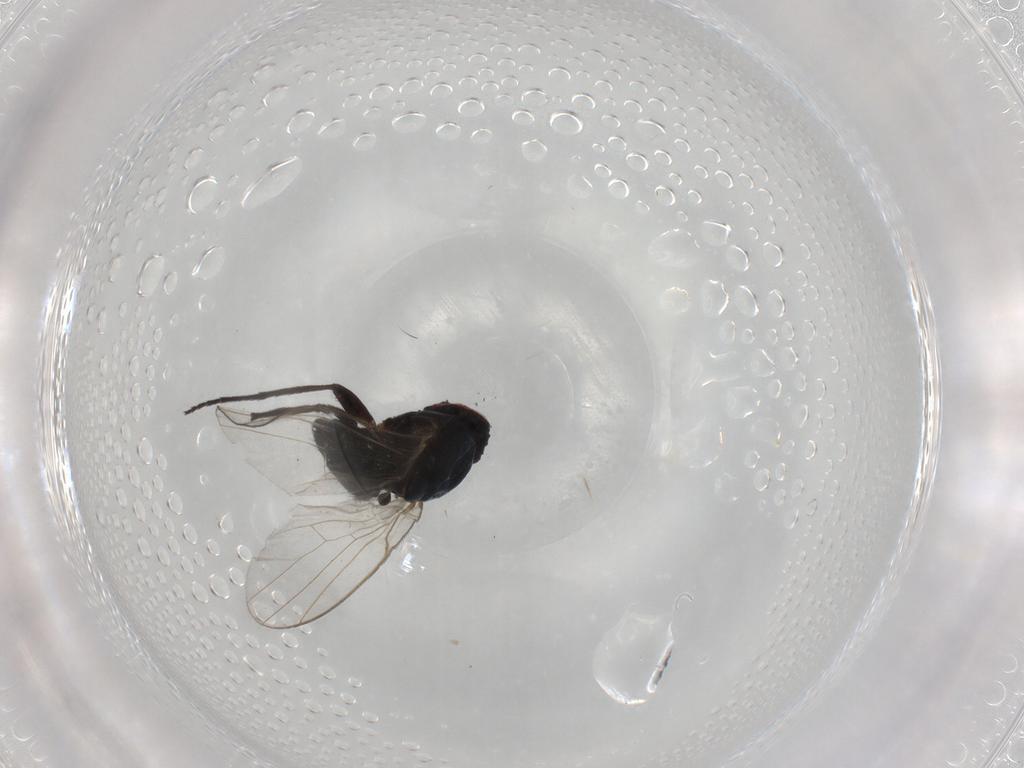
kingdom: Animalia
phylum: Arthropoda
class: Insecta
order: Diptera
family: Agromyzidae
